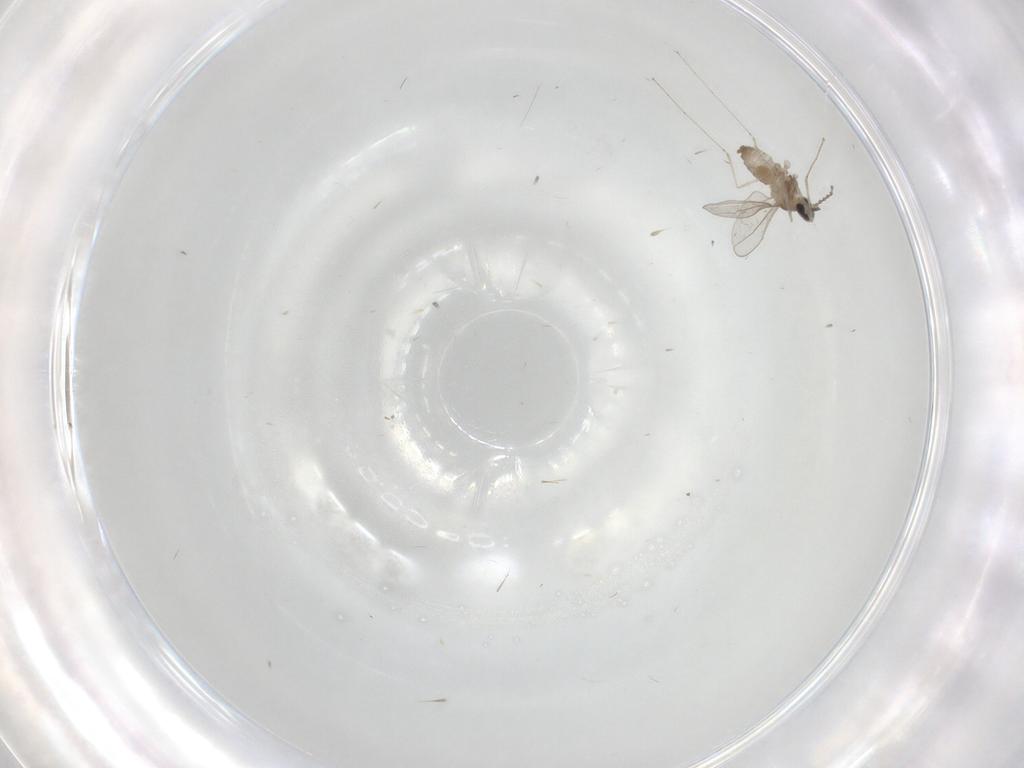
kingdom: Animalia
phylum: Arthropoda
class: Insecta
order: Diptera
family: Cecidomyiidae
